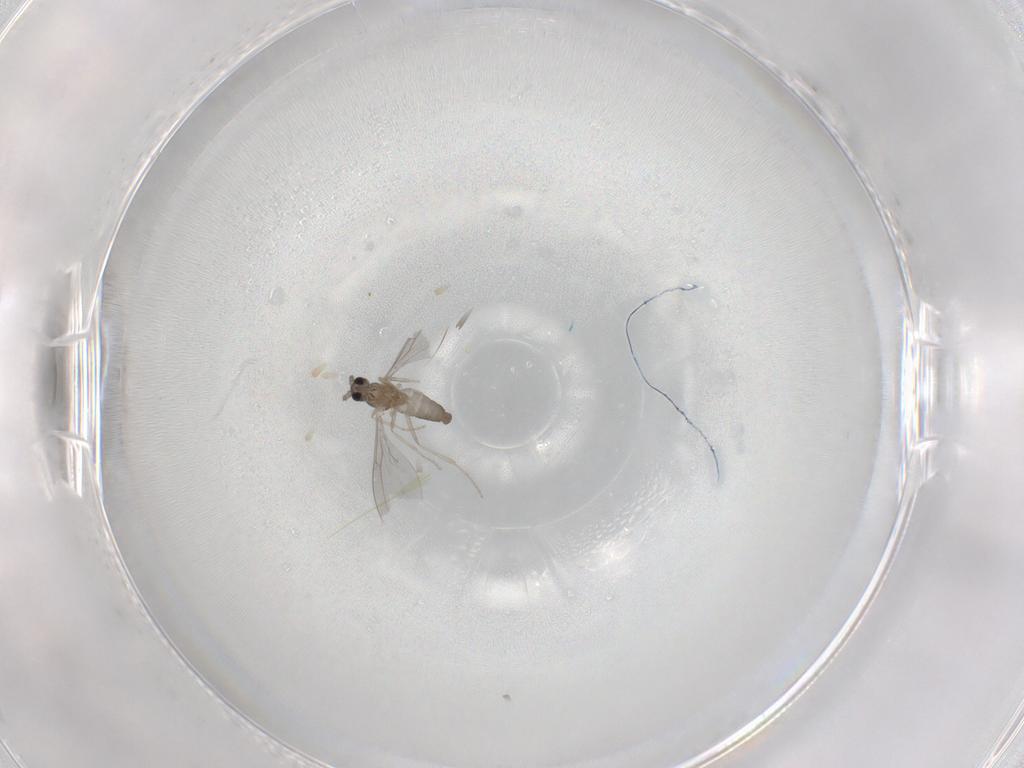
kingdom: Animalia
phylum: Arthropoda
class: Insecta
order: Diptera
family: Cecidomyiidae
